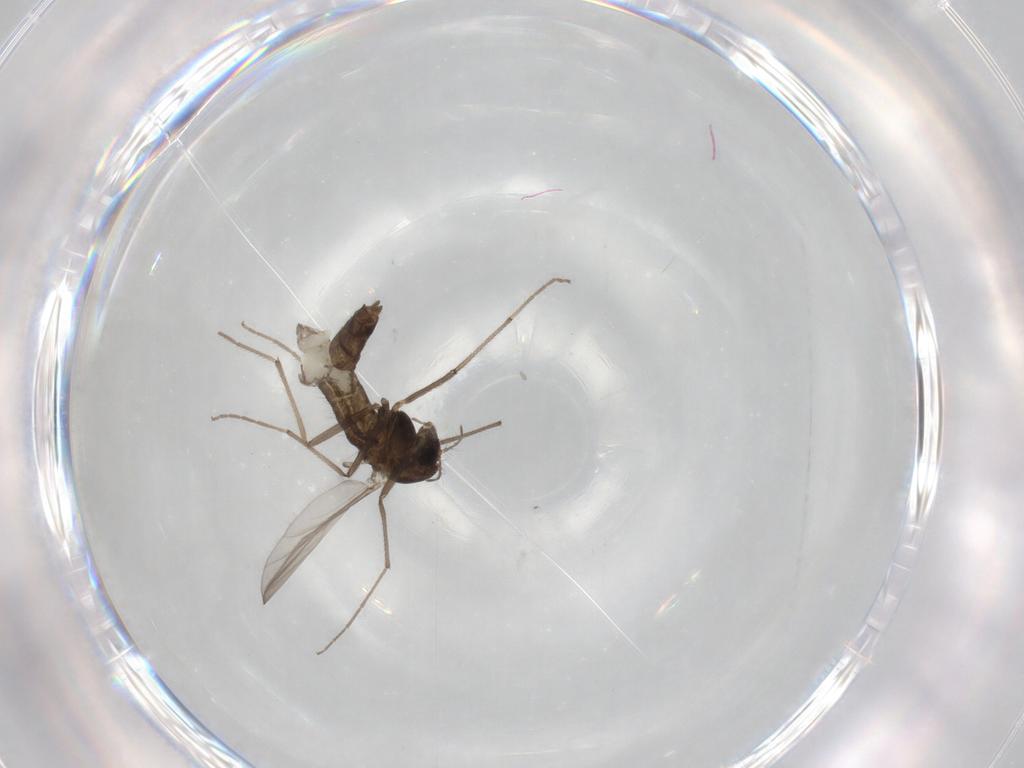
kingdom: Animalia
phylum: Arthropoda
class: Insecta
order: Diptera
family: Chironomidae
